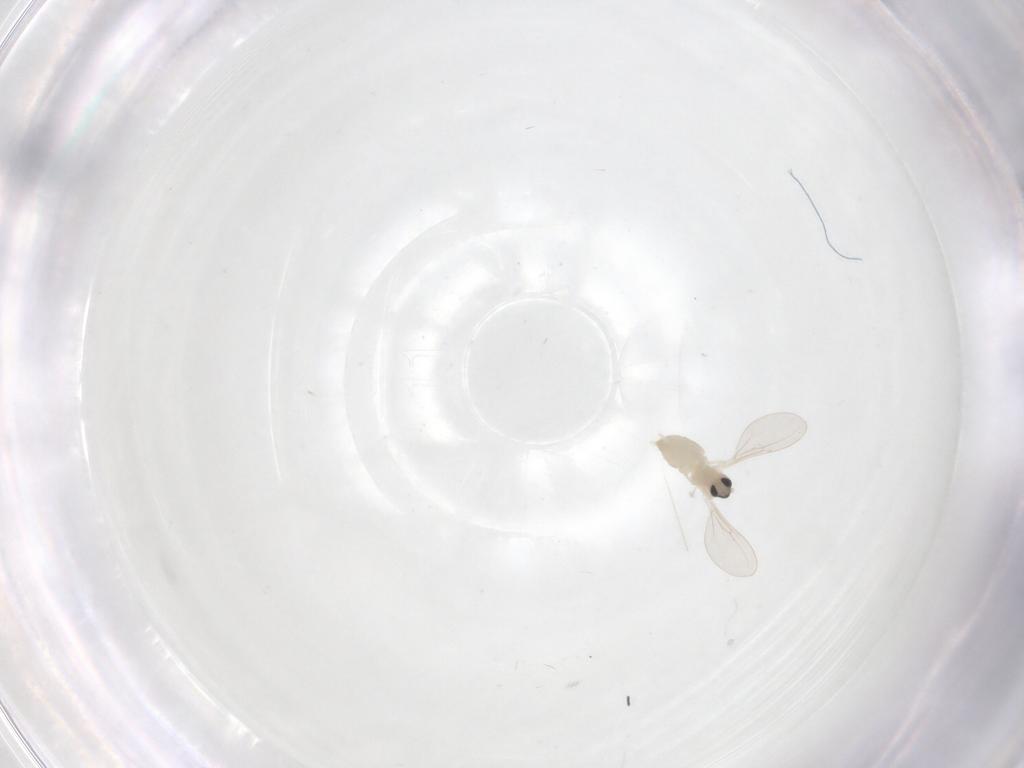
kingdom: Animalia
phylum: Arthropoda
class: Insecta
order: Diptera
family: Cecidomyiidae
